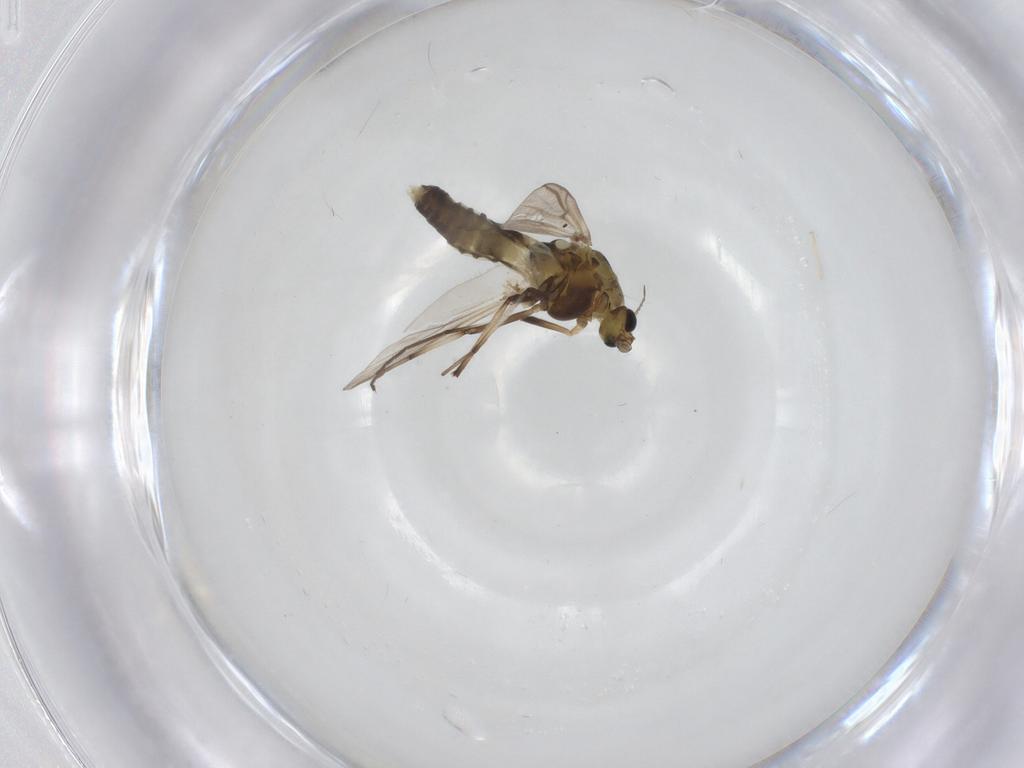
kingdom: Animalia
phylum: Arthropoda
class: Insecta
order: Diptera
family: Chironomidae
